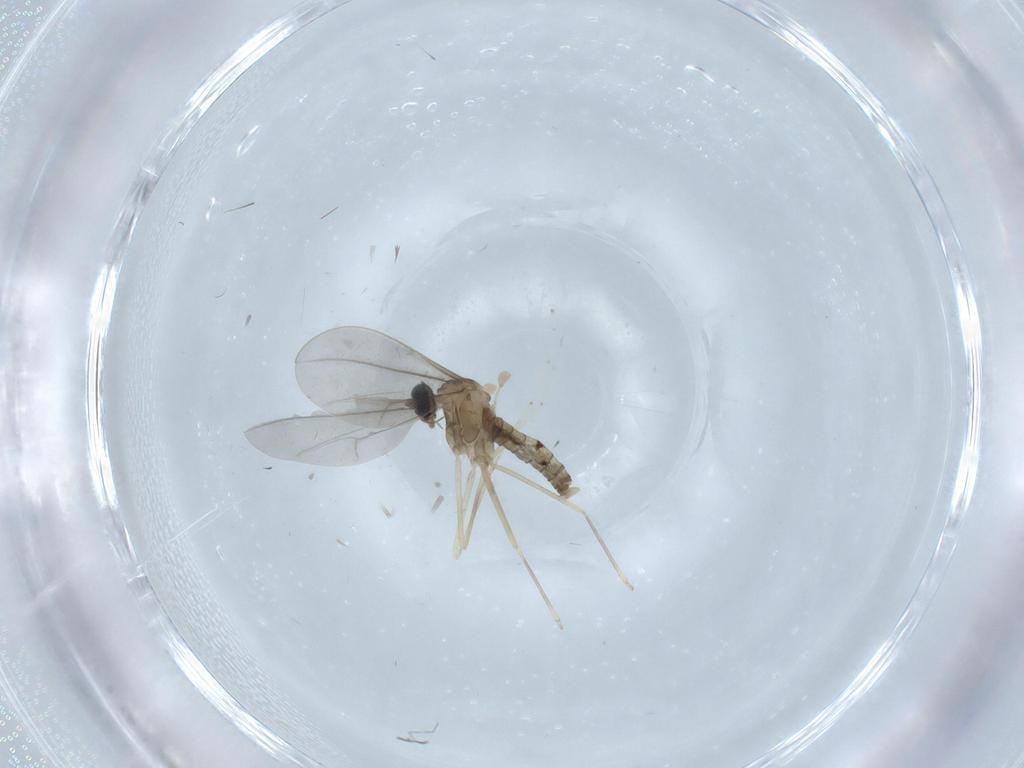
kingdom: Animalia
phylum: Arthropoda
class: Insecta
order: Diptera
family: Cecidomyiidae
